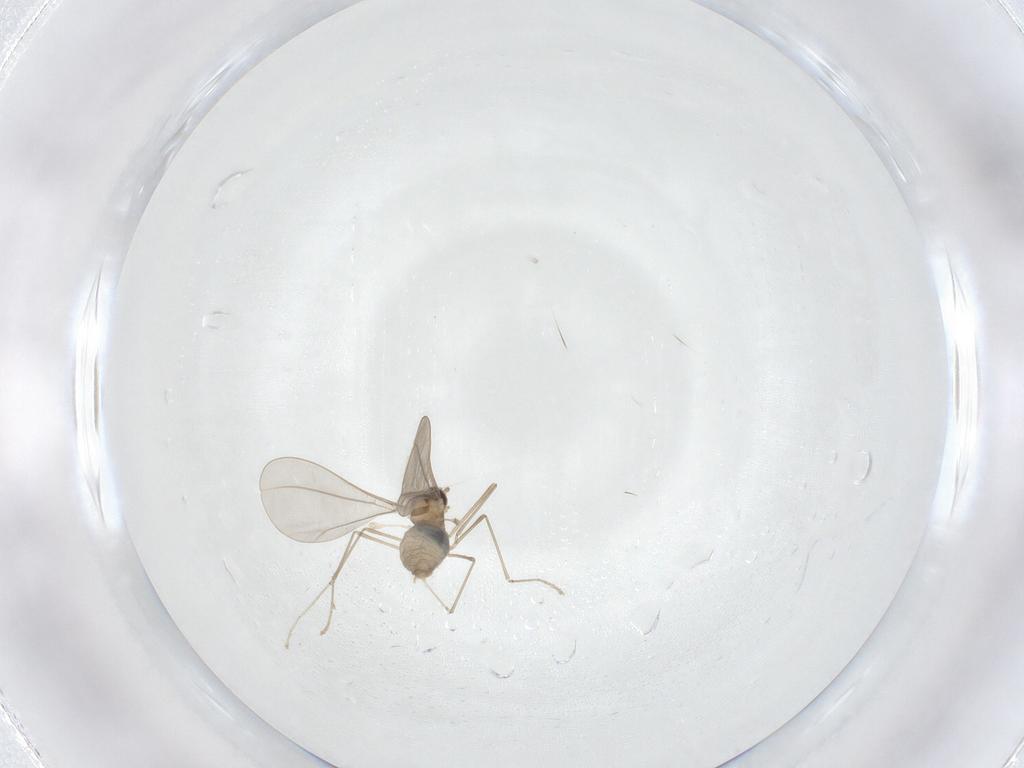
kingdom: Animalia
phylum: Arthropoda
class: Insecta
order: Diptera
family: Cecidomyiidae
